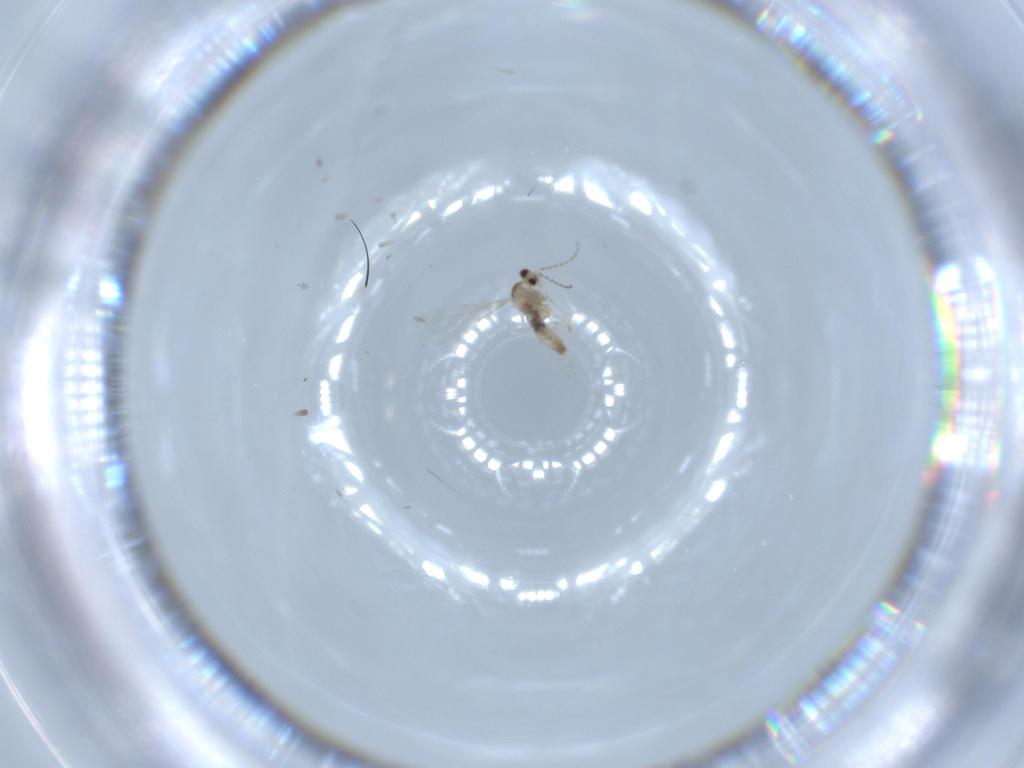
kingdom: Animalia
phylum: Arthropoda
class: Insecta
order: Diptera
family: Cecidomyiidae
